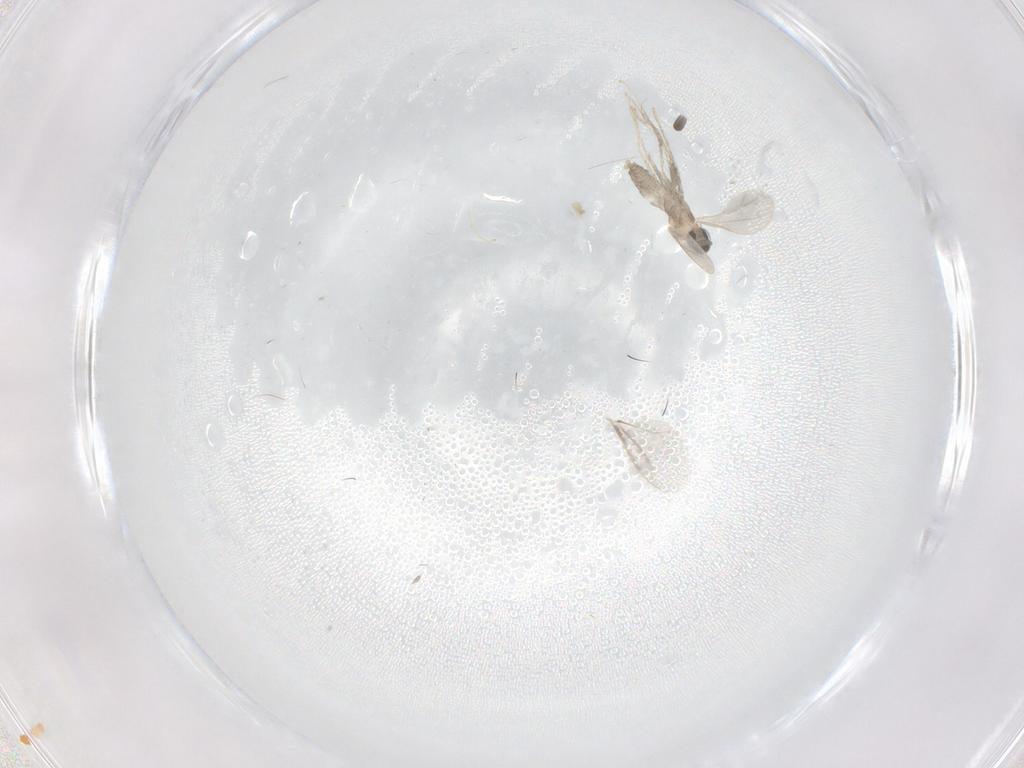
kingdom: Animalia
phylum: Arthropoda
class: Insecta
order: Diptera
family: Cecidomyiidae
